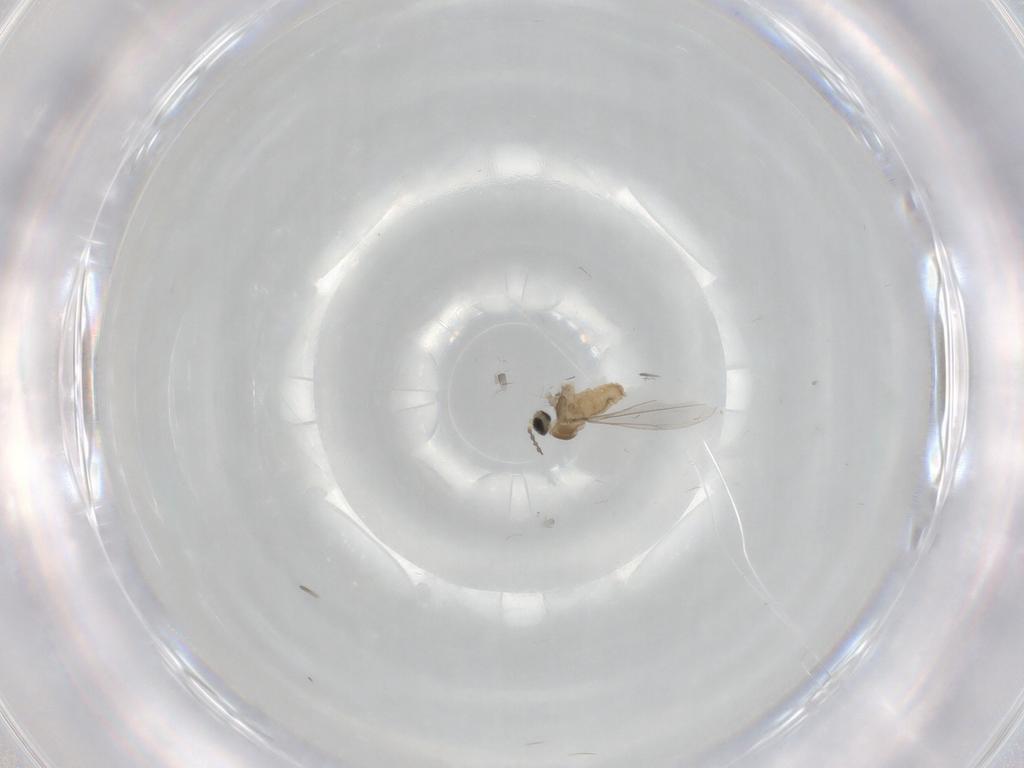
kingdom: Animalia
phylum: Arthropoda
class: Insecta
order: Diptera
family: Cecidomyiidae
